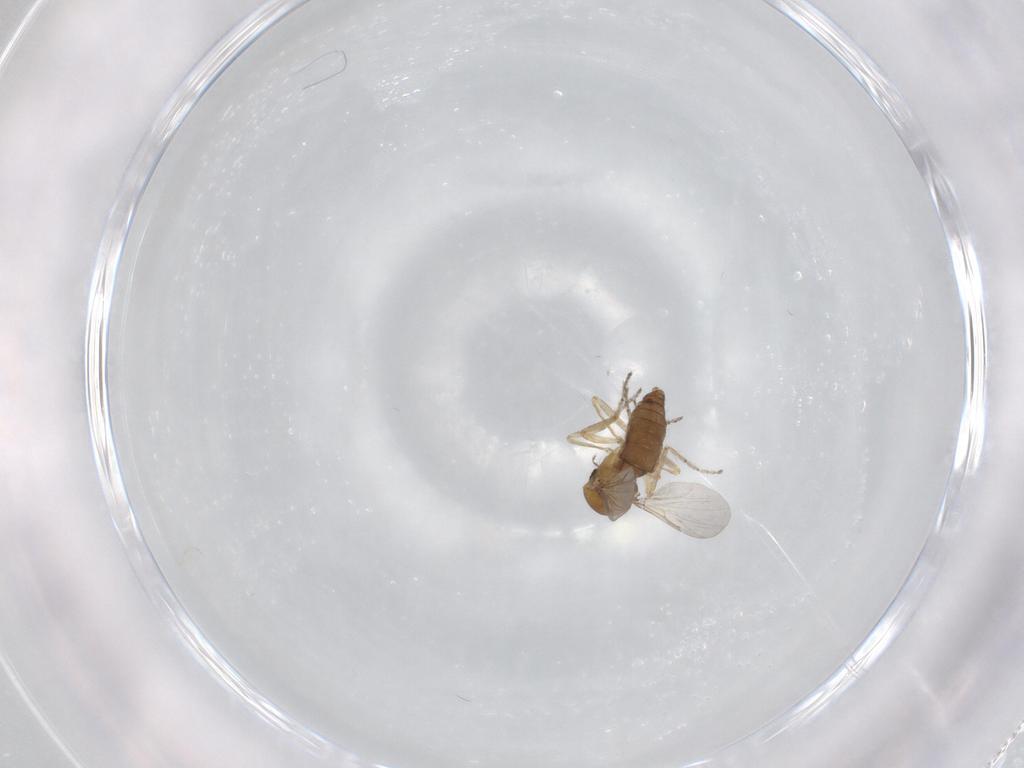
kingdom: Animalia
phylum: Arthropoda
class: Insecta
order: Diptera
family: Ceratopogonidae
